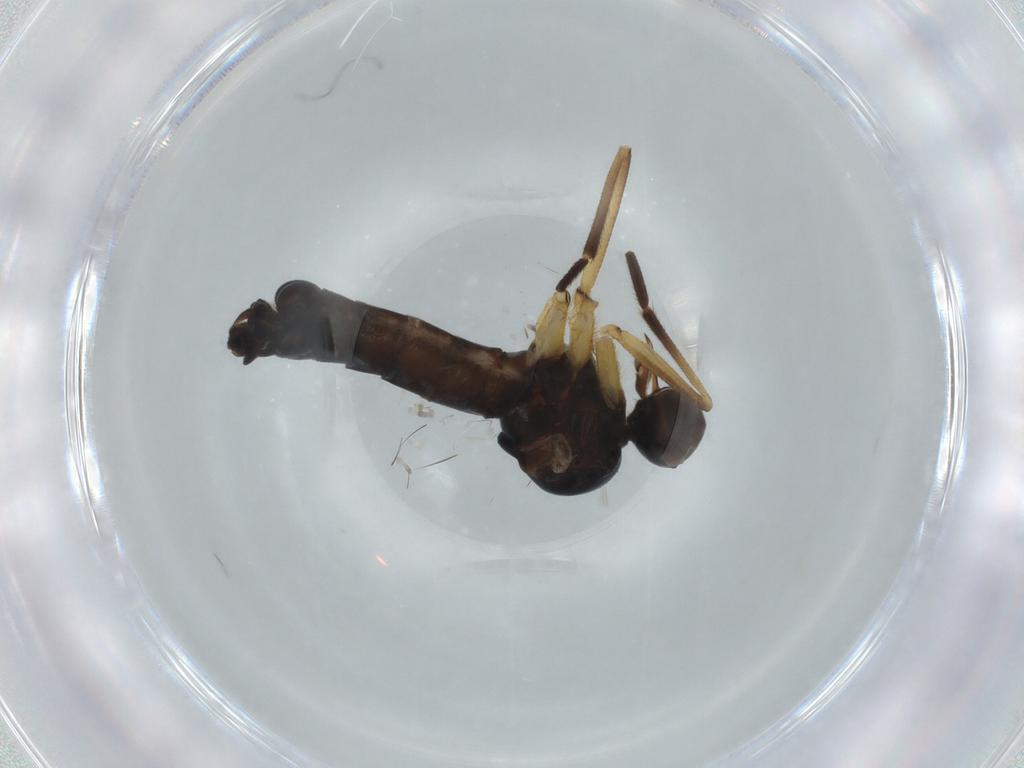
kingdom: Animalia
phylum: Arthropoda
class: Insecta
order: Diptera
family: Empididae
